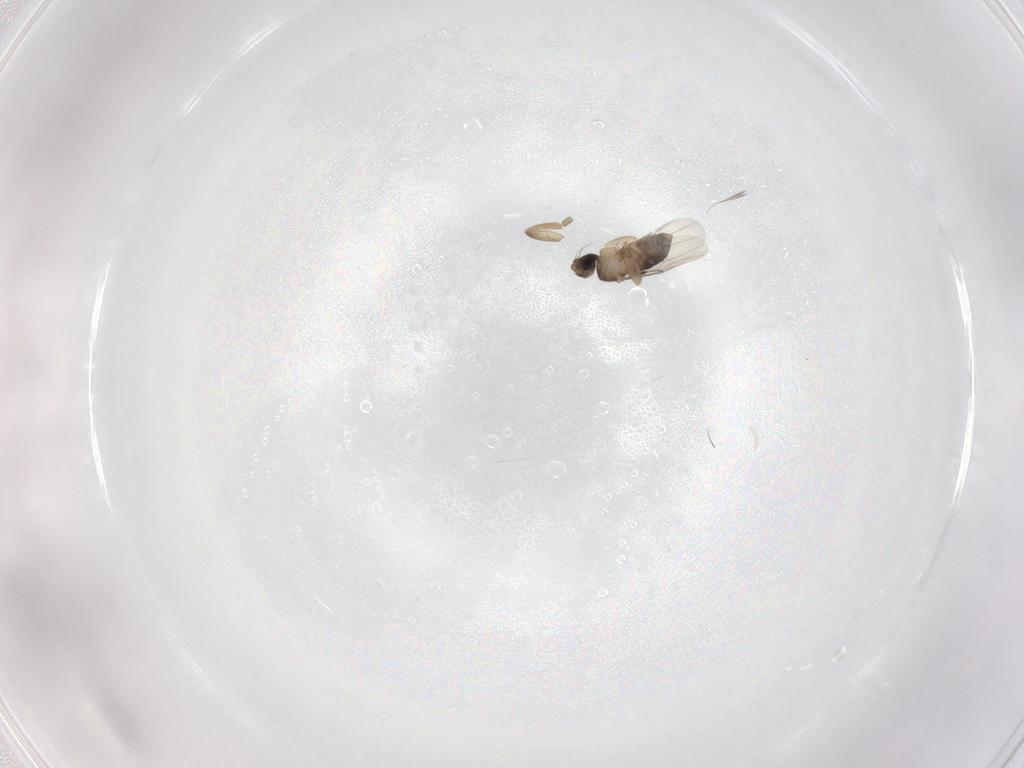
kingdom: Animalia
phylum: Arthropoda
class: Insecta
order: Diptera
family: Phoridae
